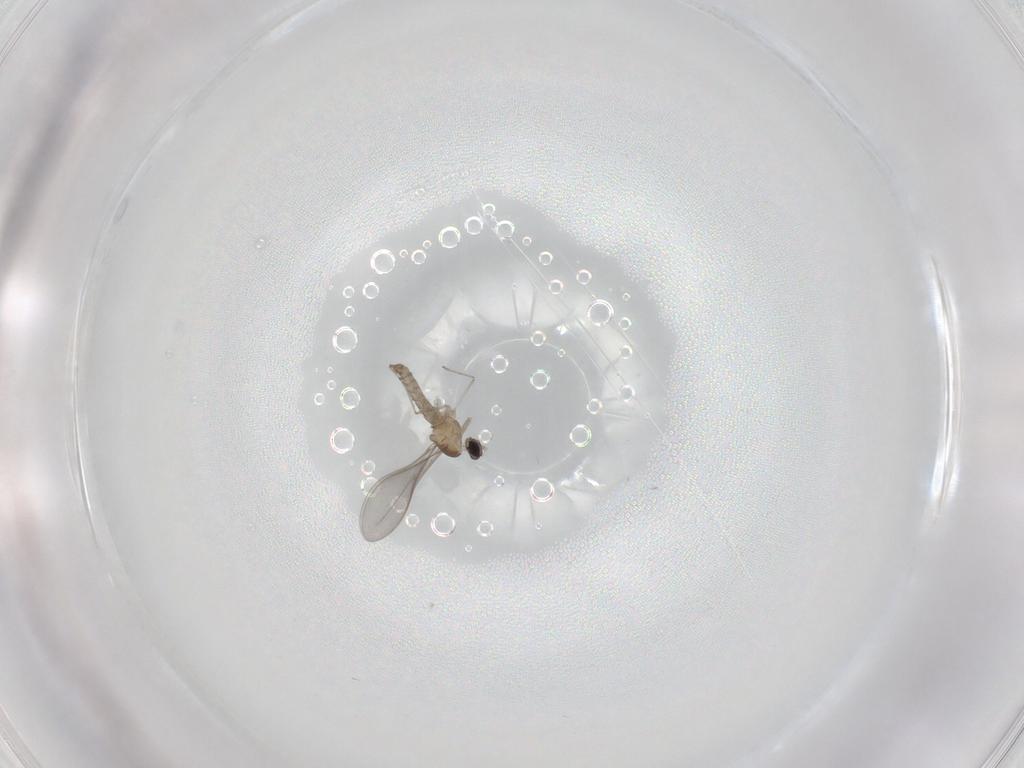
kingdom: Animalia
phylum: Arthropoda
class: Insecta
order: Diptera
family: Phoridae
